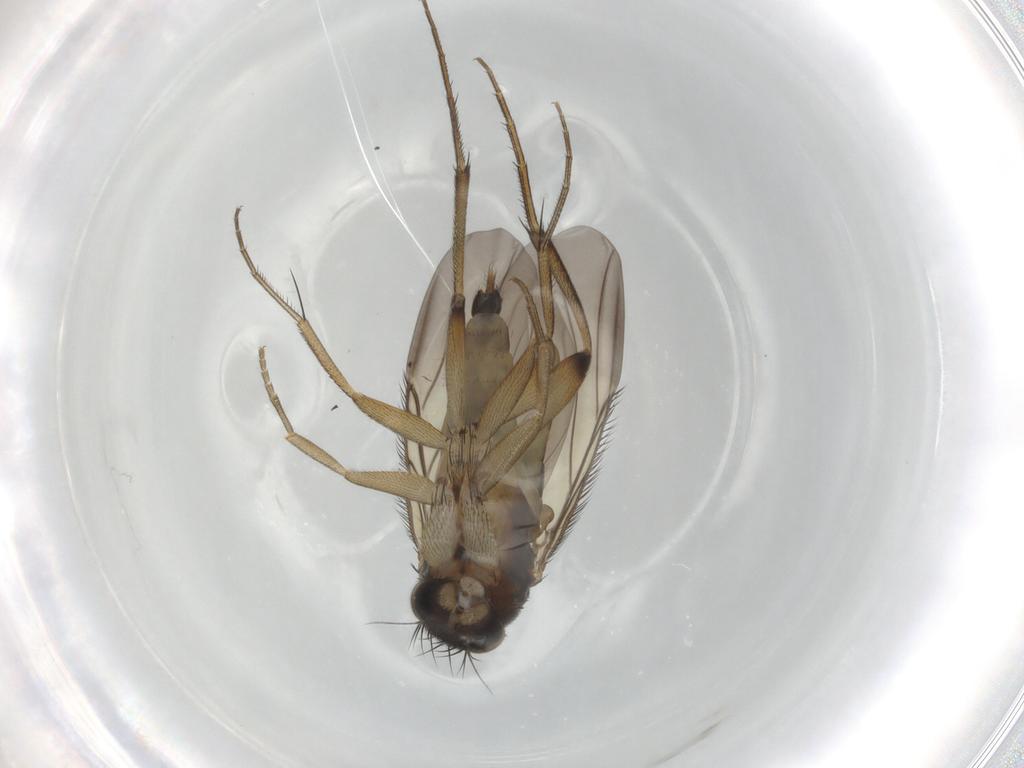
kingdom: Animalia
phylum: Arthropoda
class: Insecta
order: Diptera
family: Phoridae
